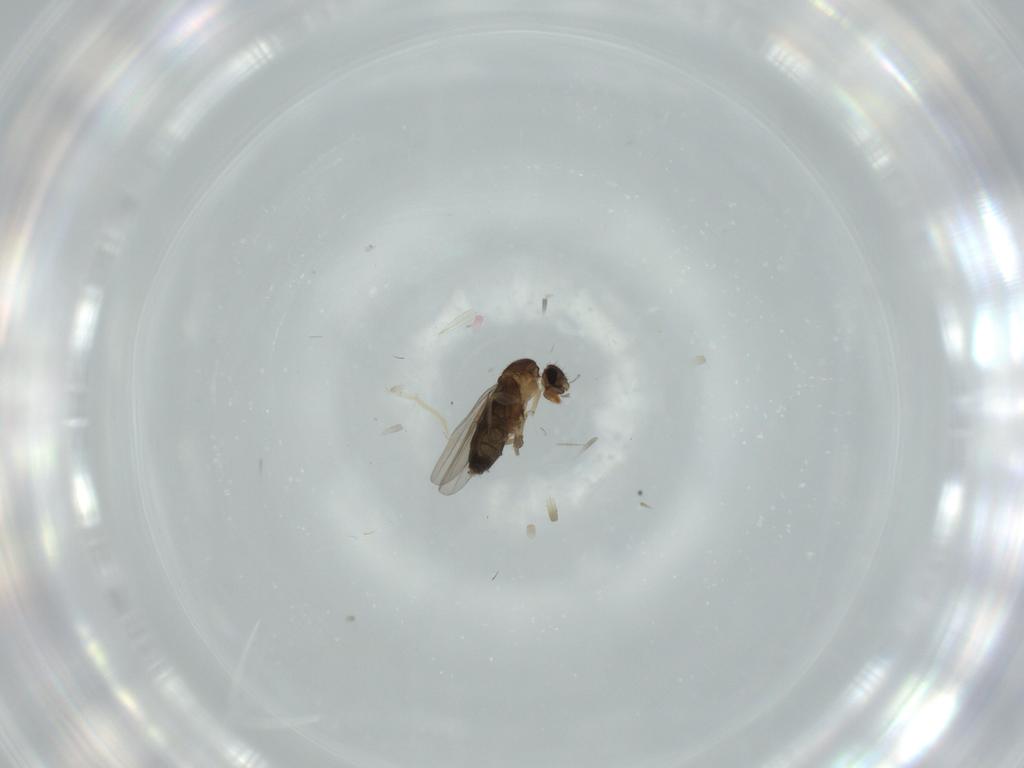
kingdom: Animalia
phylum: Arthropoda
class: Insecta
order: Diptera
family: Phoridae
